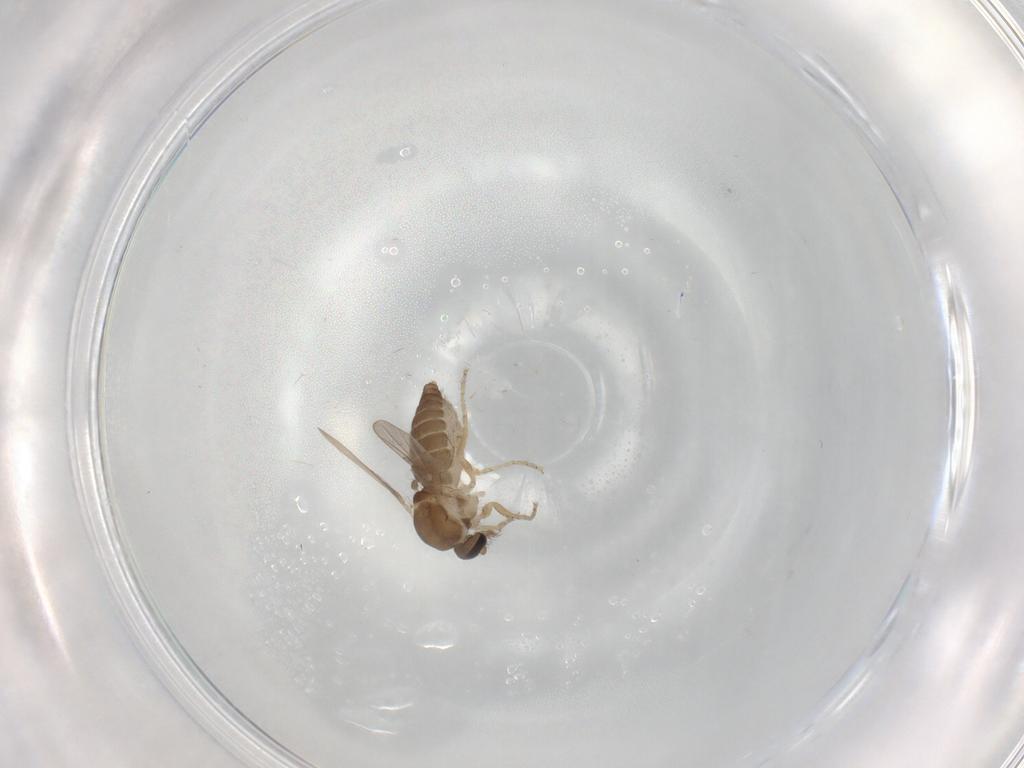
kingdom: Animalia
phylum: Arthropoda
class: Insecta
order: Diptera
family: Ceratopogonidae
